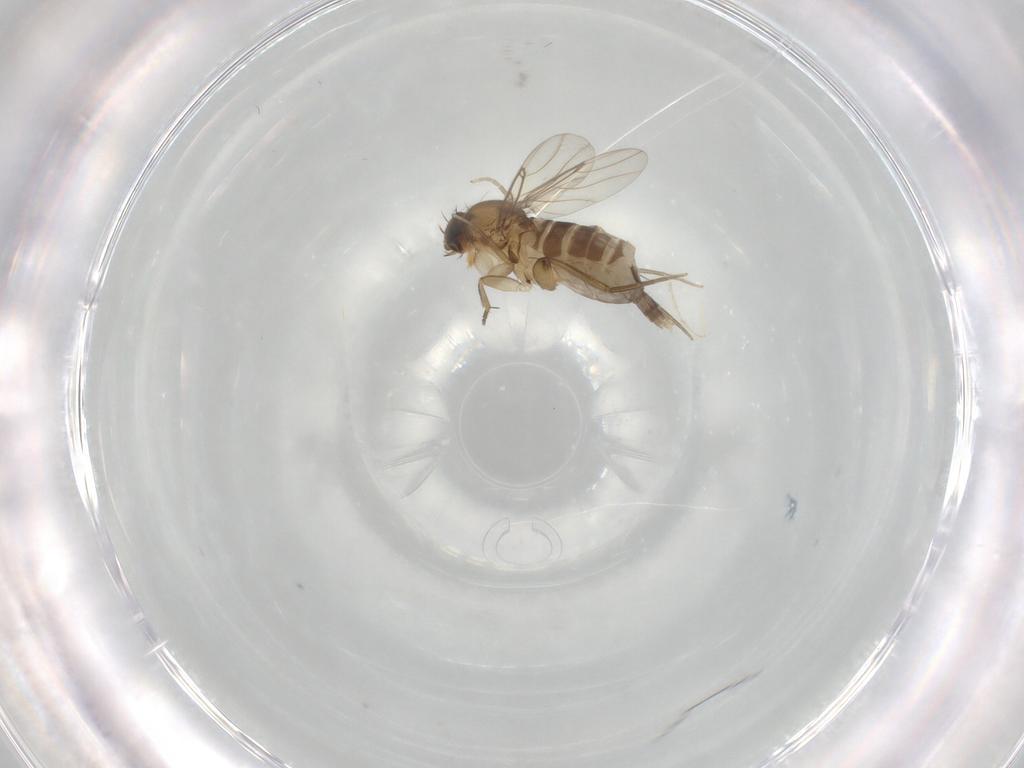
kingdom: Animalia
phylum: Arthropoda
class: Insecta
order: Diptera
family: Phoridae
